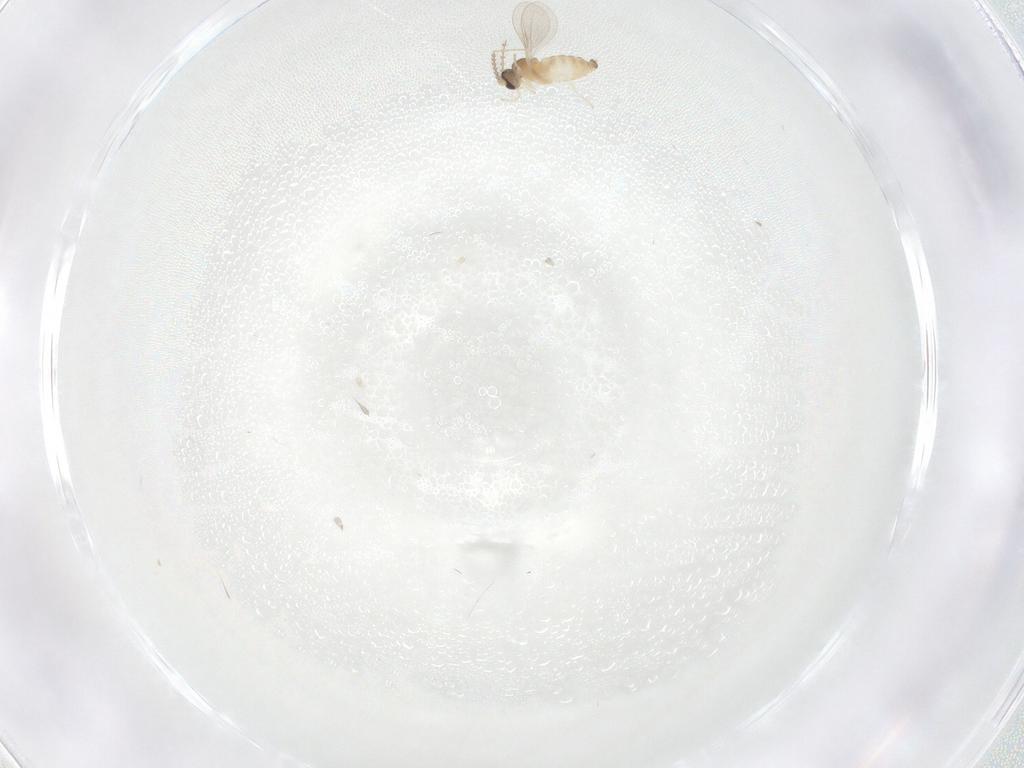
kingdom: Animalia
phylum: Arthropoda
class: Insecta
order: Diptera
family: Cecidomyiidae
